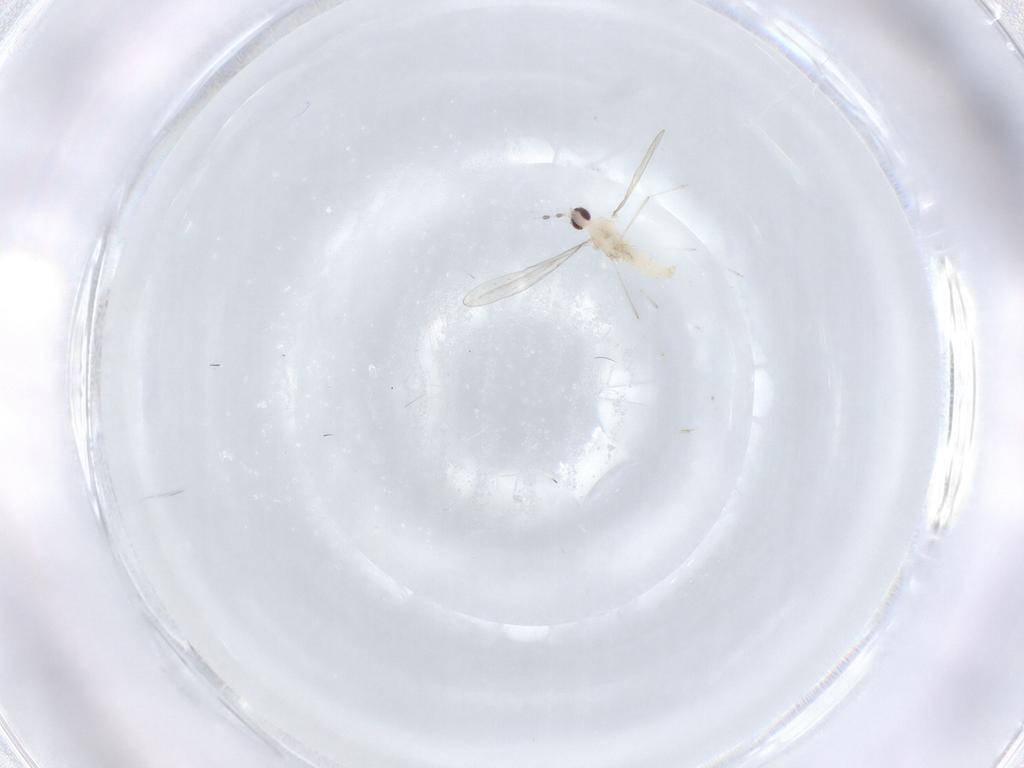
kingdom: Animalia
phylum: Arthropoda
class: Insecta
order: Diptera
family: Cecidomyiidae
